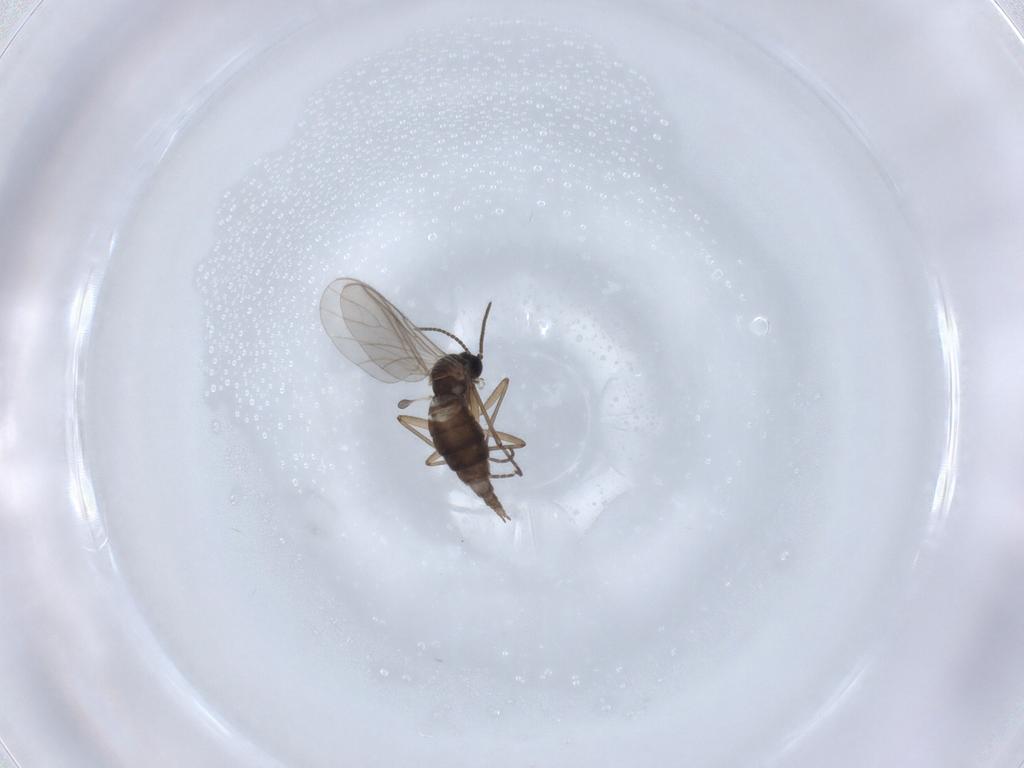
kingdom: Animalia
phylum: Arthropoda
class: Insecta
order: Diptera
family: Sciaridae
